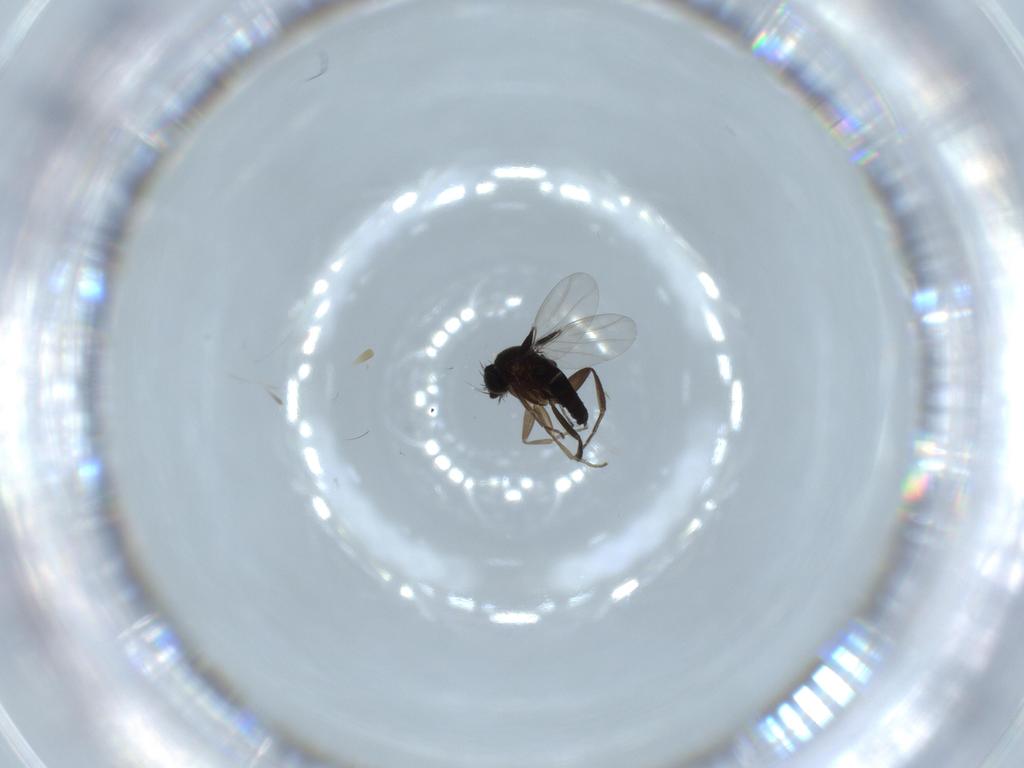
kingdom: Animalia
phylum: Arthropoda
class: Insecta
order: Diptera
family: Phoridae
